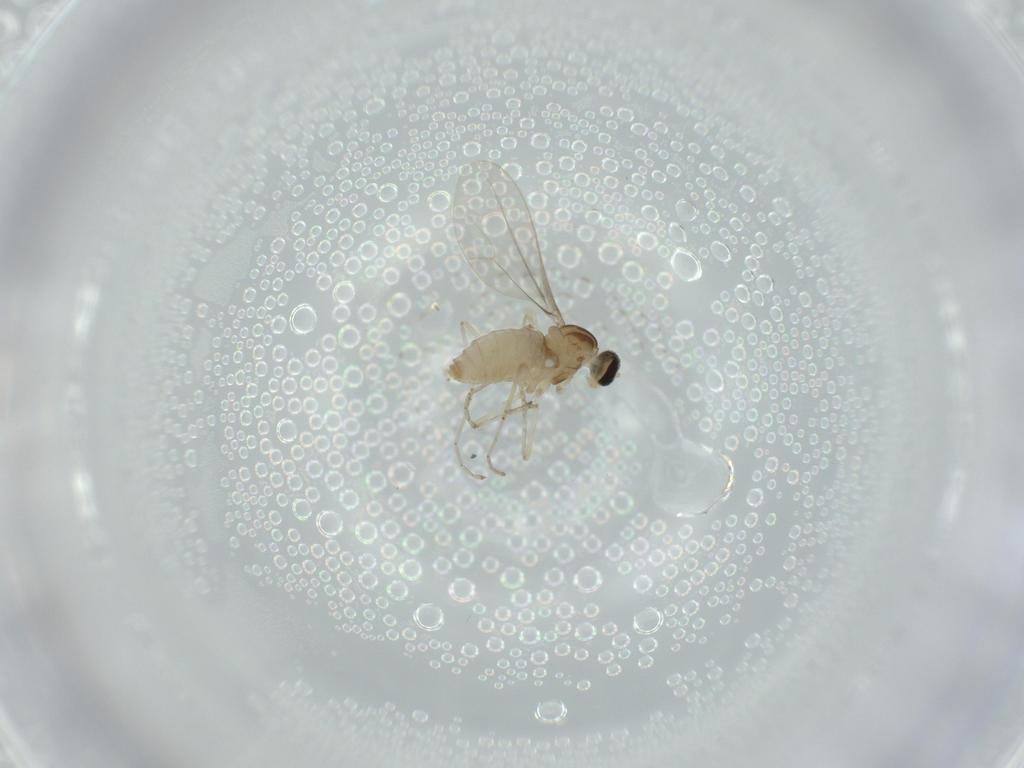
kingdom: Animalia
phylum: Arthropoda
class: Insecta
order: Diptera
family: Cecidomyiidae
